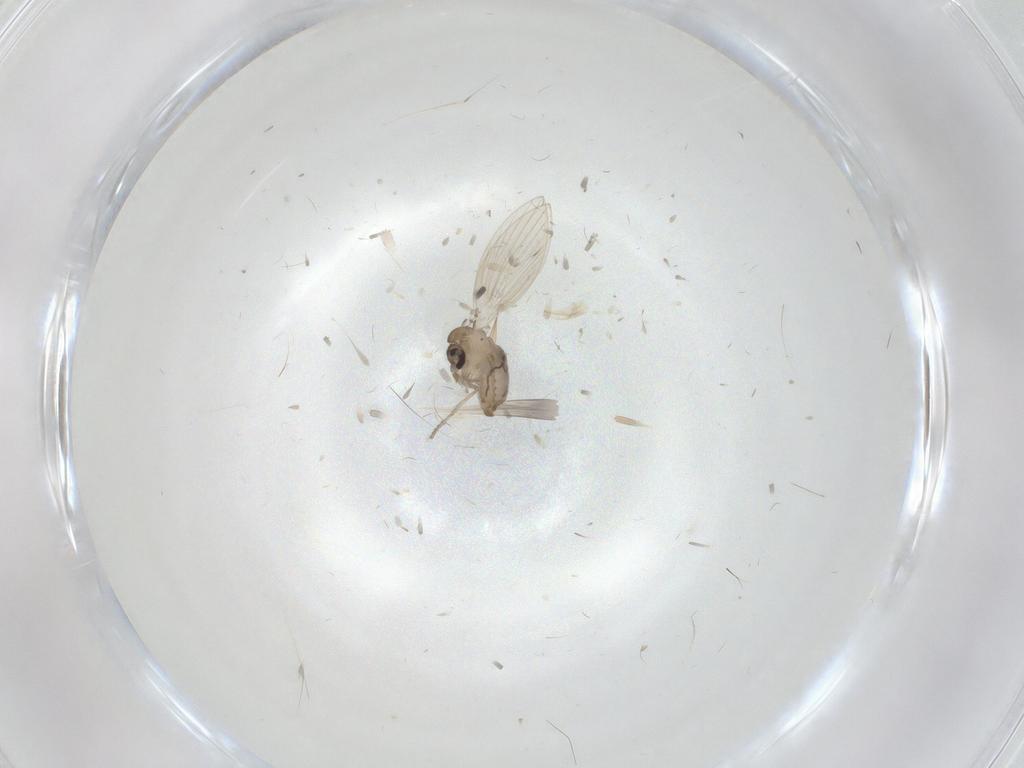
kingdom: Animalia
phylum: Arthropoda
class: Insecta
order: Diptera
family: Psychodidae
